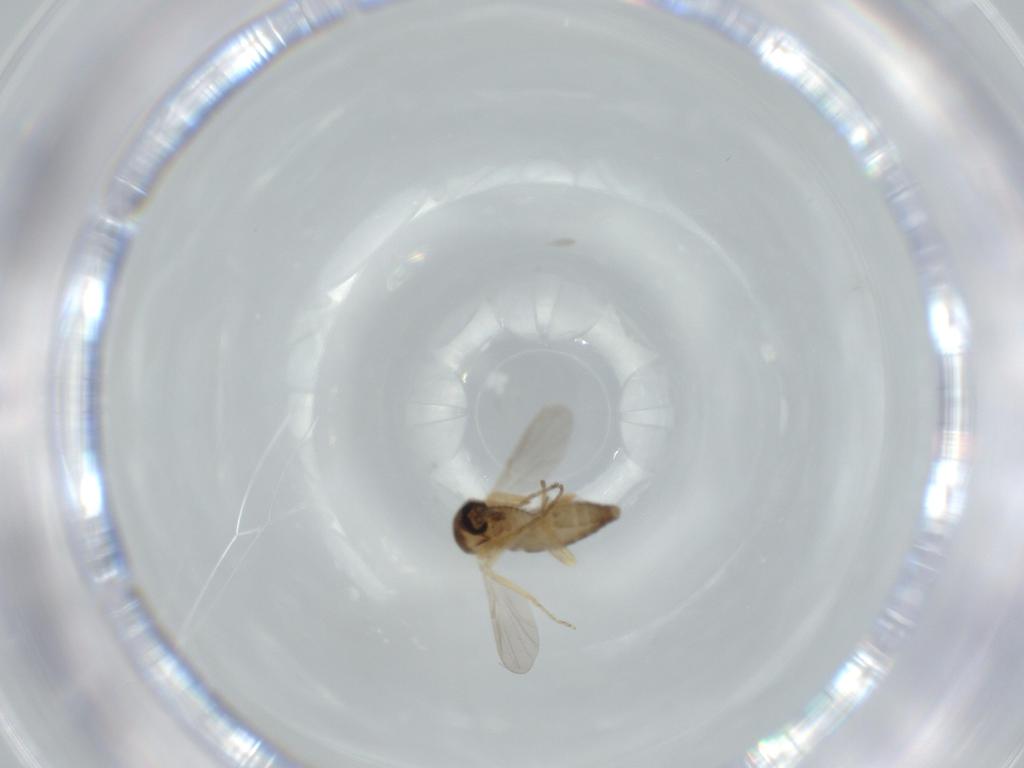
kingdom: Animalia
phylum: Arthropoda
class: Insecta
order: Diptera
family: Ceratopogonidae
